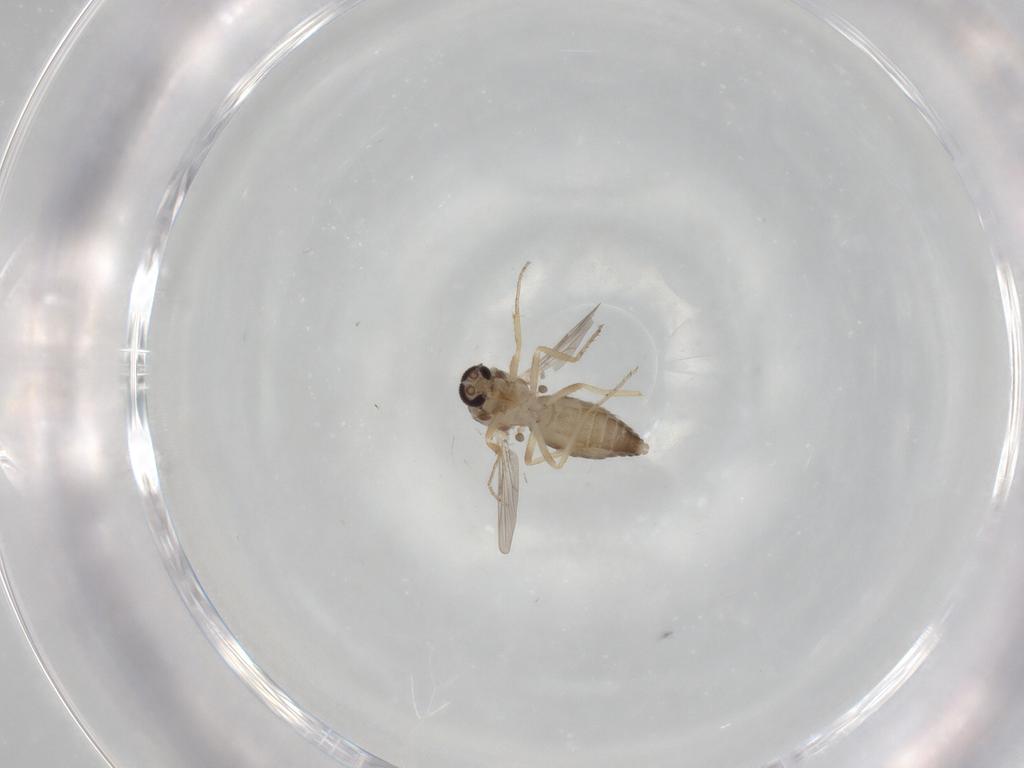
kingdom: Animalia
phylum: Arthropoda
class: Insecta
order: Diptera
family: Ceratopogonidae
